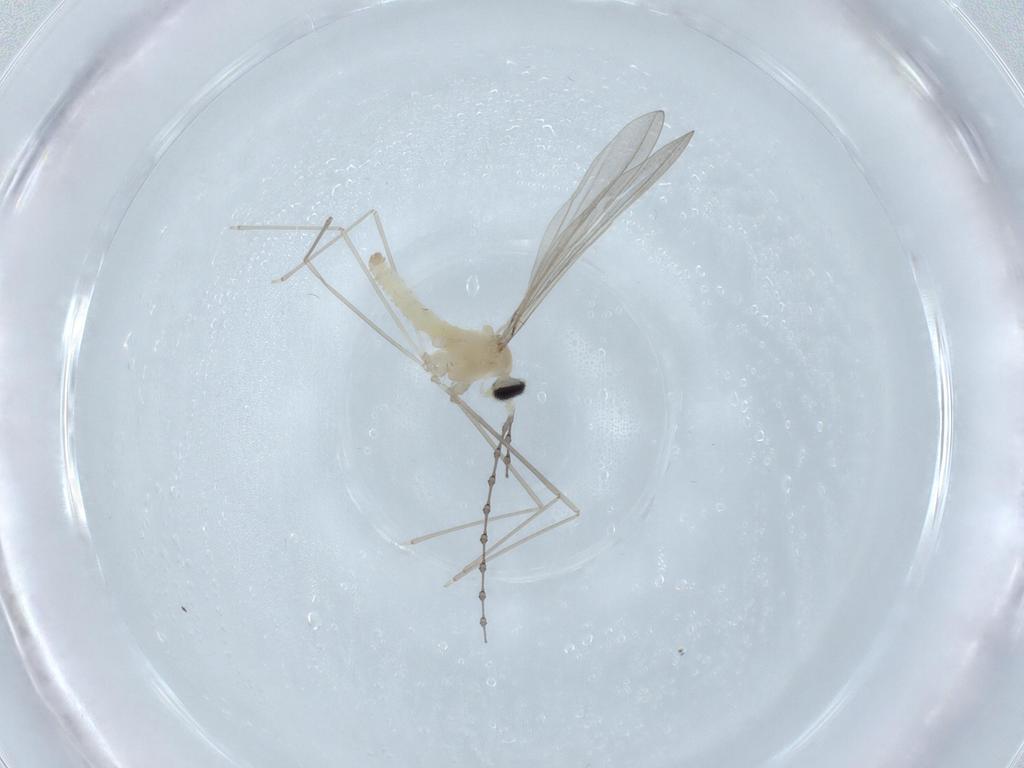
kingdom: Animalia
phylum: Arthropoda
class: Insecta
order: Diptera
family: Cecidomyiidae
